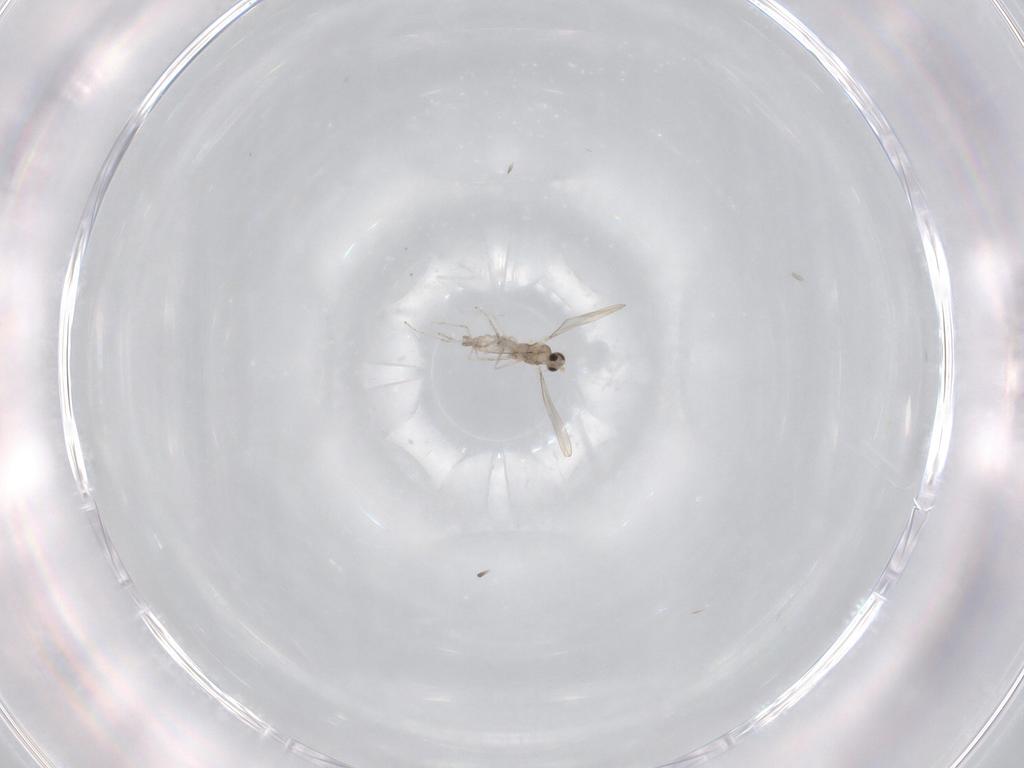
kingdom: Animalia
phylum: Arthropoda
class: Insecta
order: Diptera
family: Cecidomyiidae
